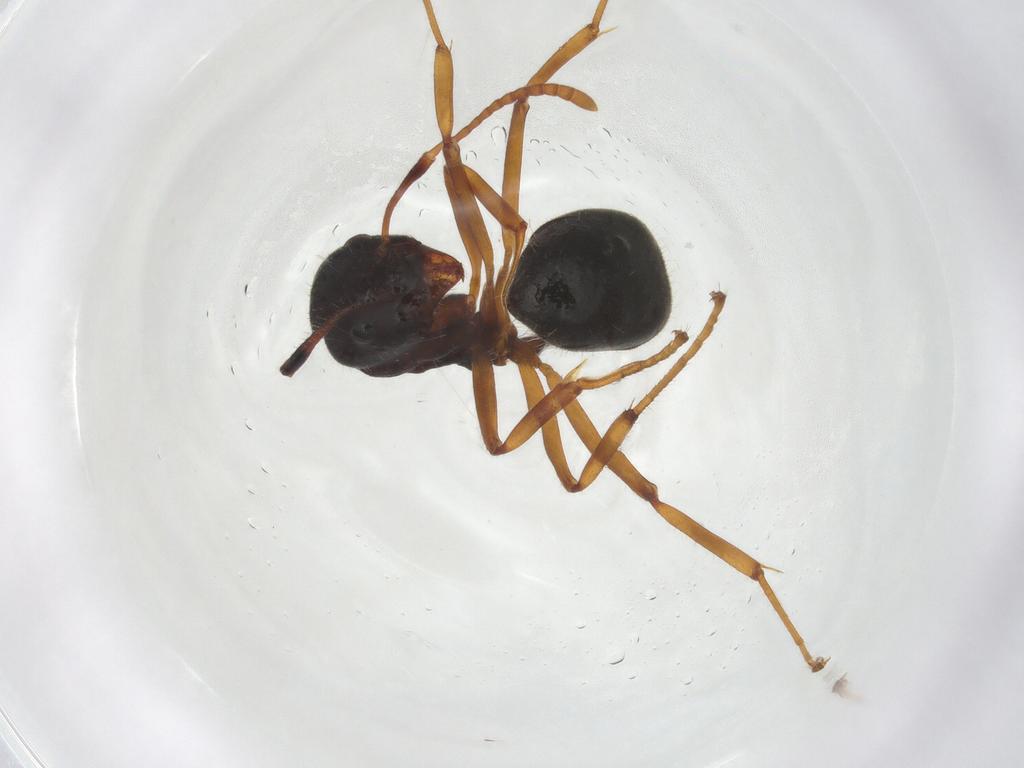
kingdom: Animalia
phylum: Arthropoda
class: Insecta
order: Hymenoptera
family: Formicidae
